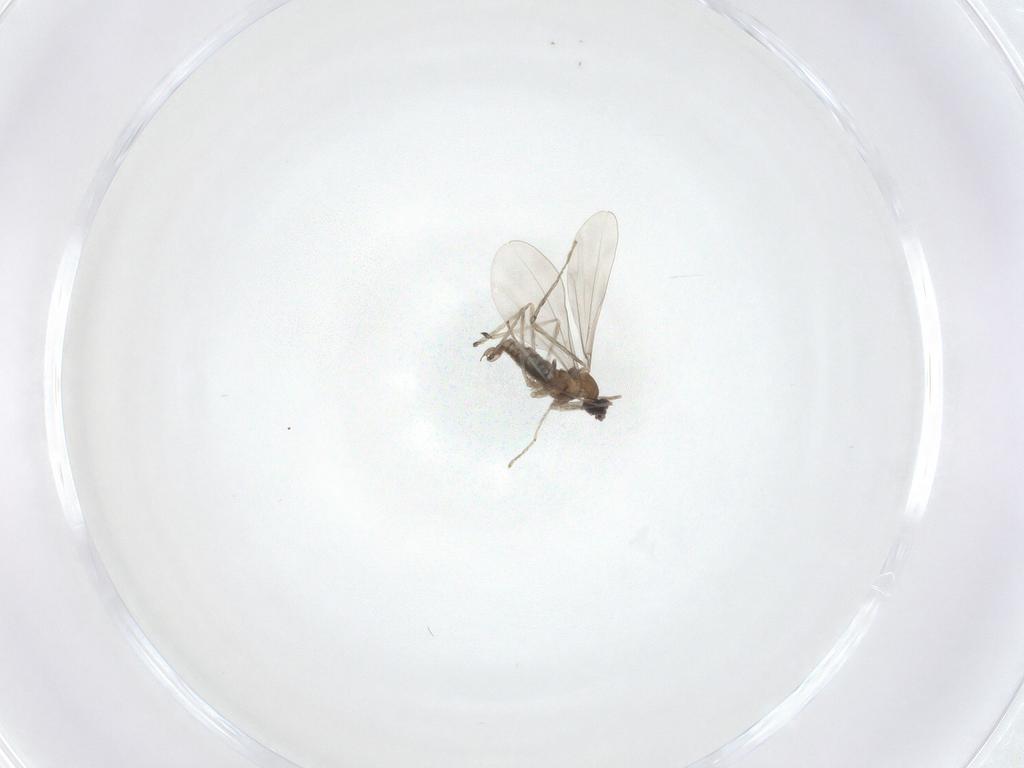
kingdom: Animalia
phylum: Arthropoda
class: Insecta
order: Diptera
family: Cecidomyiidae
